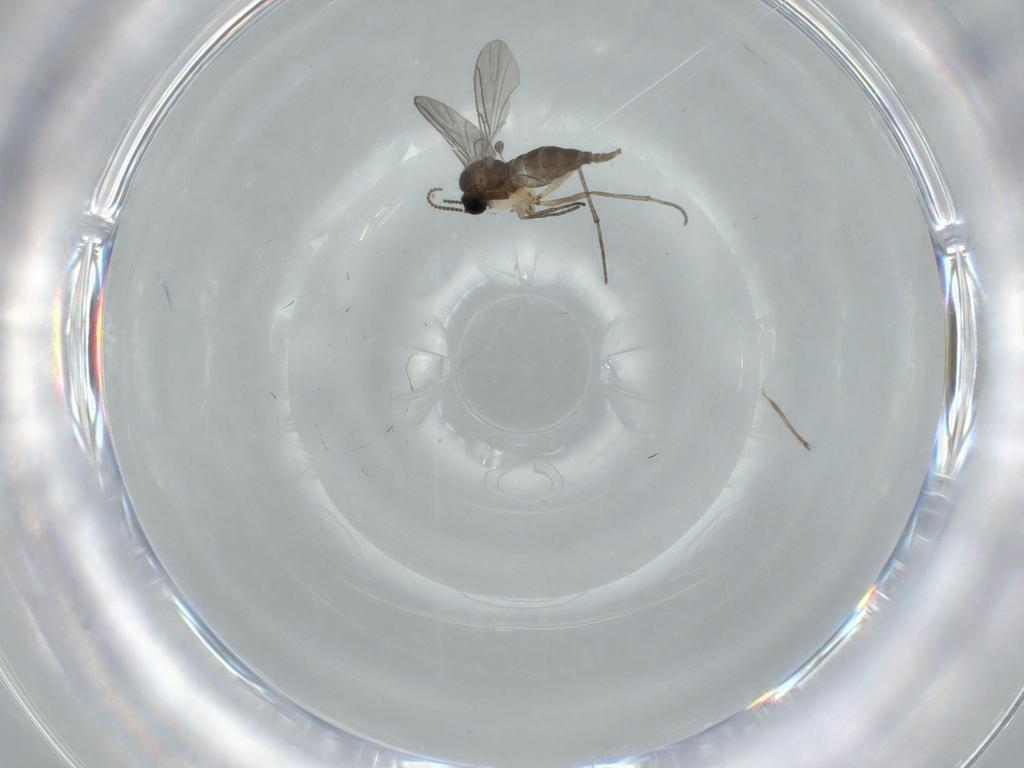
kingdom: Animalia
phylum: Arthropoda
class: Insecta
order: Diptera
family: Sciaridae
